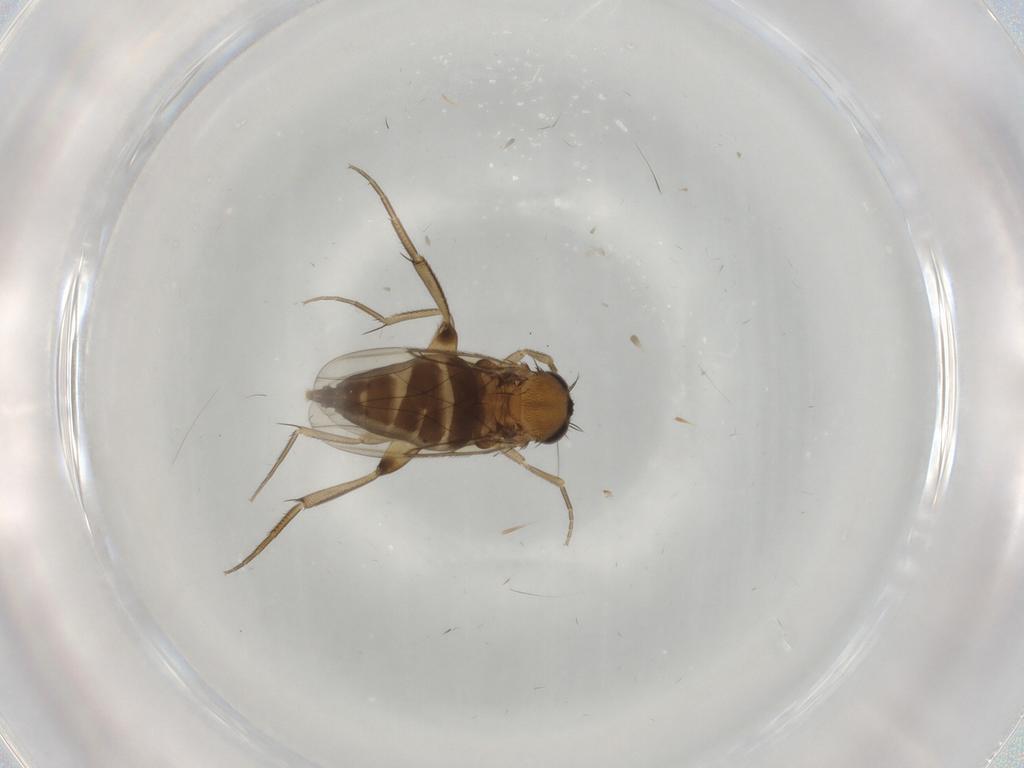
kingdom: Animalia
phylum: Arthropoda
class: Insecta
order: Diptera
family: Phoridae
